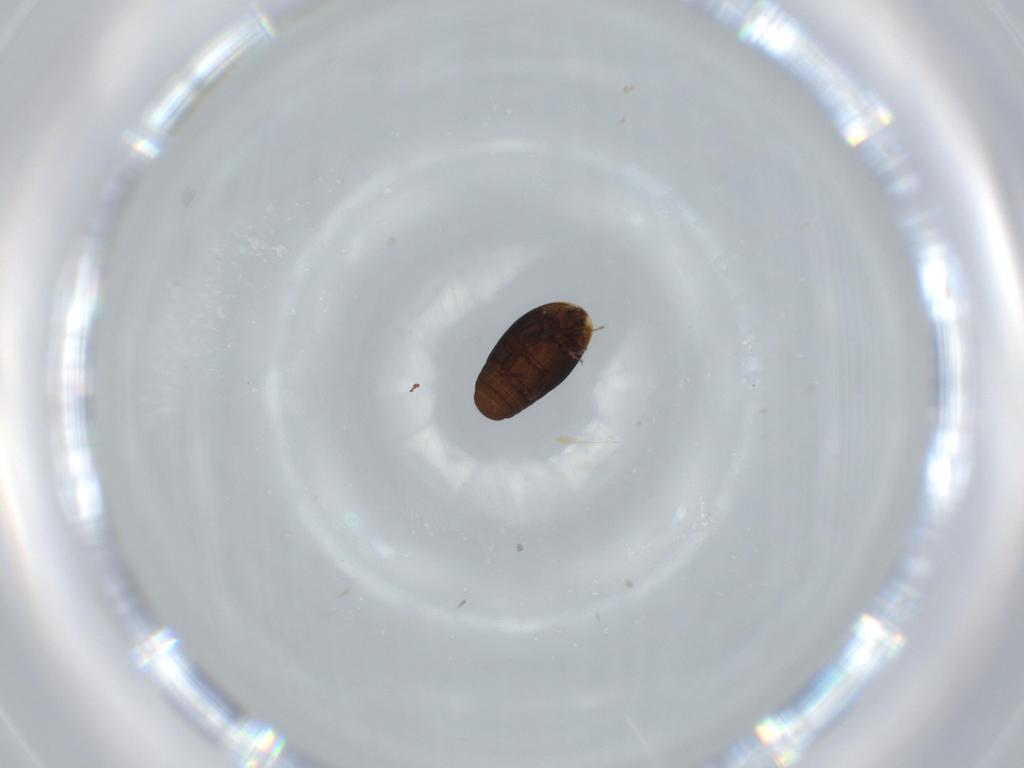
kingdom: Animalia
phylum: Arthropoda
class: Insecta
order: Coleoptera
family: Corylophidae
